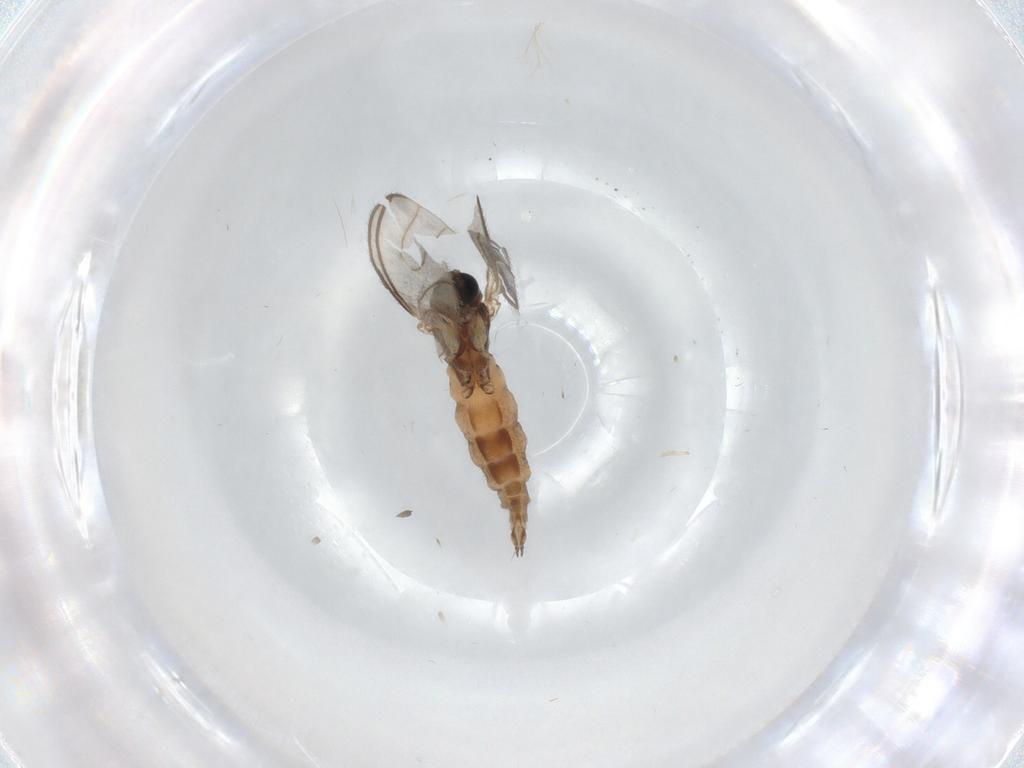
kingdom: Animalia
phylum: Arthropoda
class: Insecta
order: Diptera
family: Sciaridae
